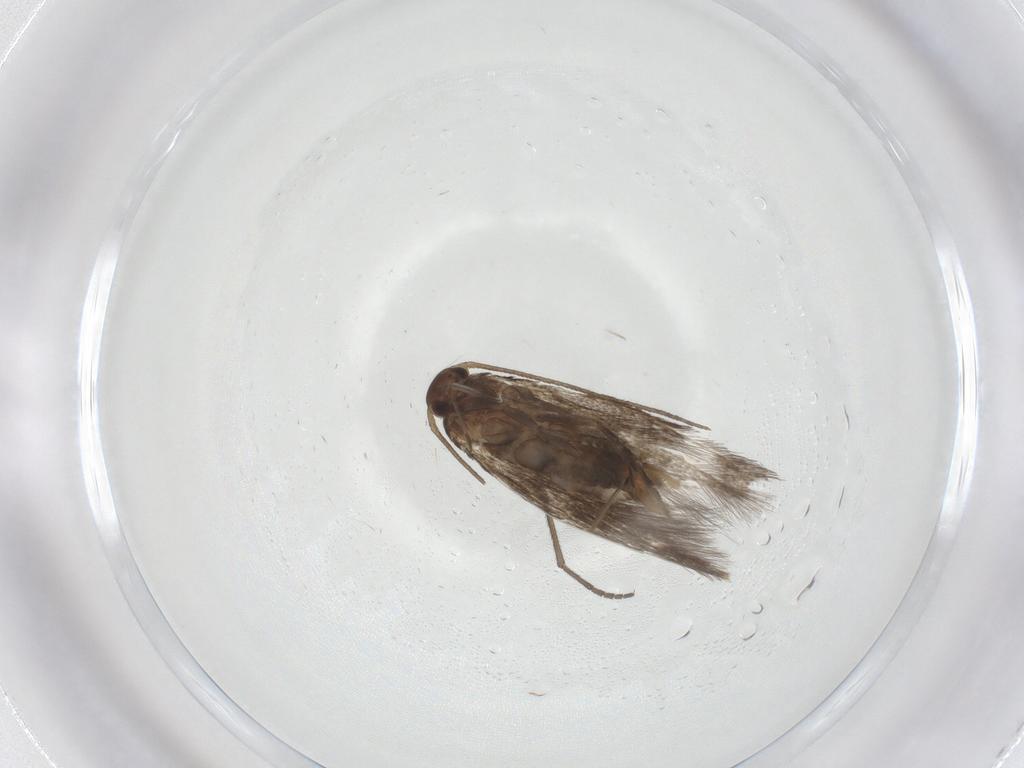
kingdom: Animalia
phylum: Arthropoda
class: Insecta
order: Lepidoptera
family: Elachistidae
